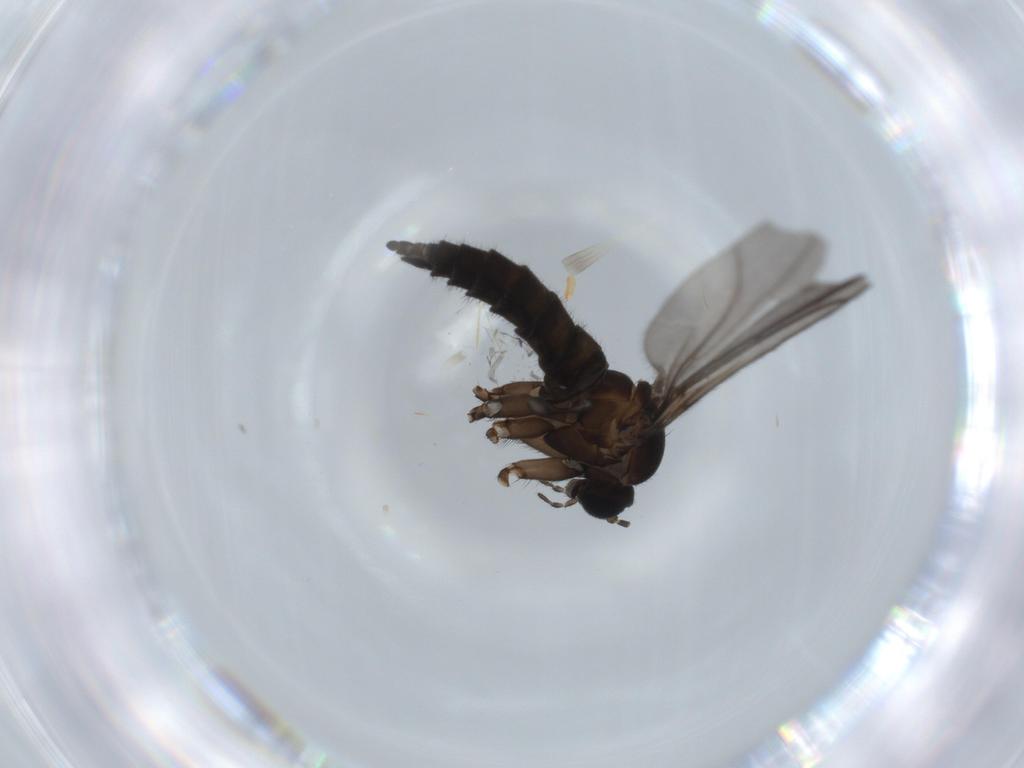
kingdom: Animalia
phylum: Arthropoda
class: Insecta
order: Diptera
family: Sciaridae
